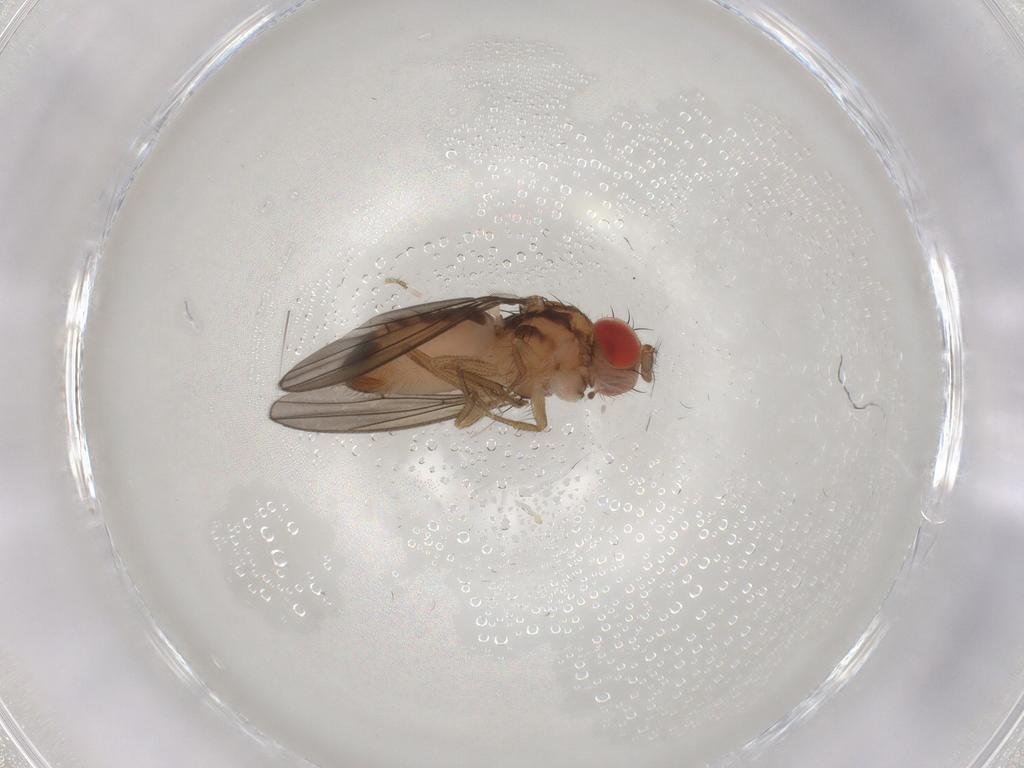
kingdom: Animalia
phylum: Arthropoda
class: Insecta
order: Diptera
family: Drosophilidae
